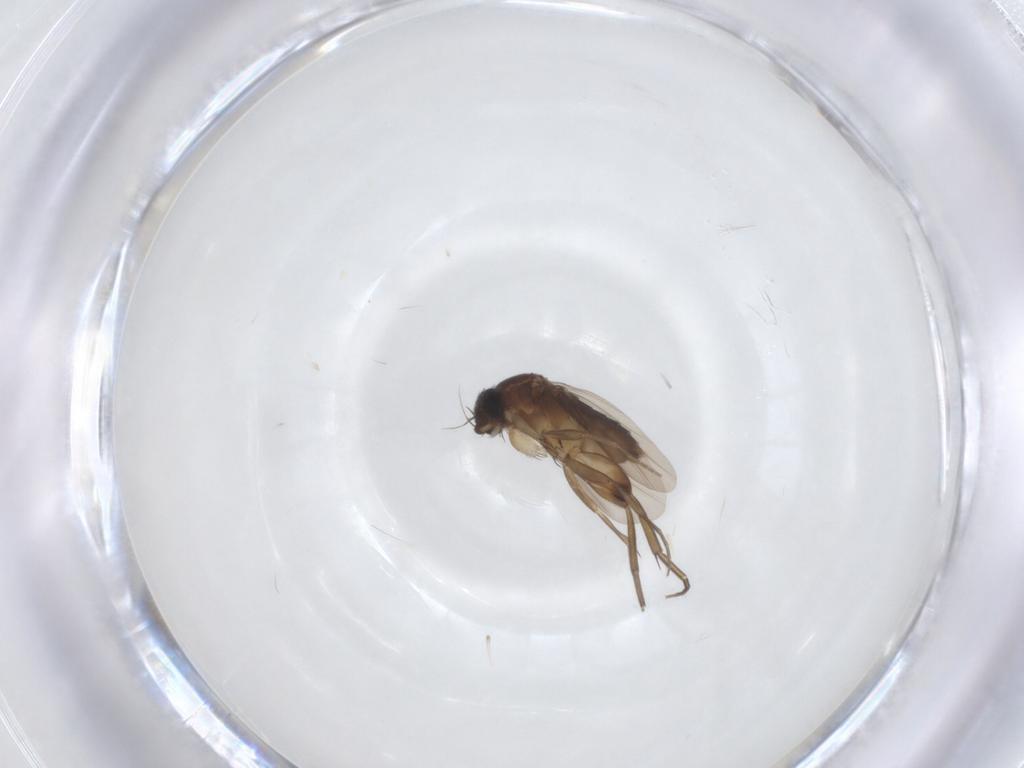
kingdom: Animalia
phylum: Arthropoda
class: Insecta
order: Diptera
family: Phoridae
